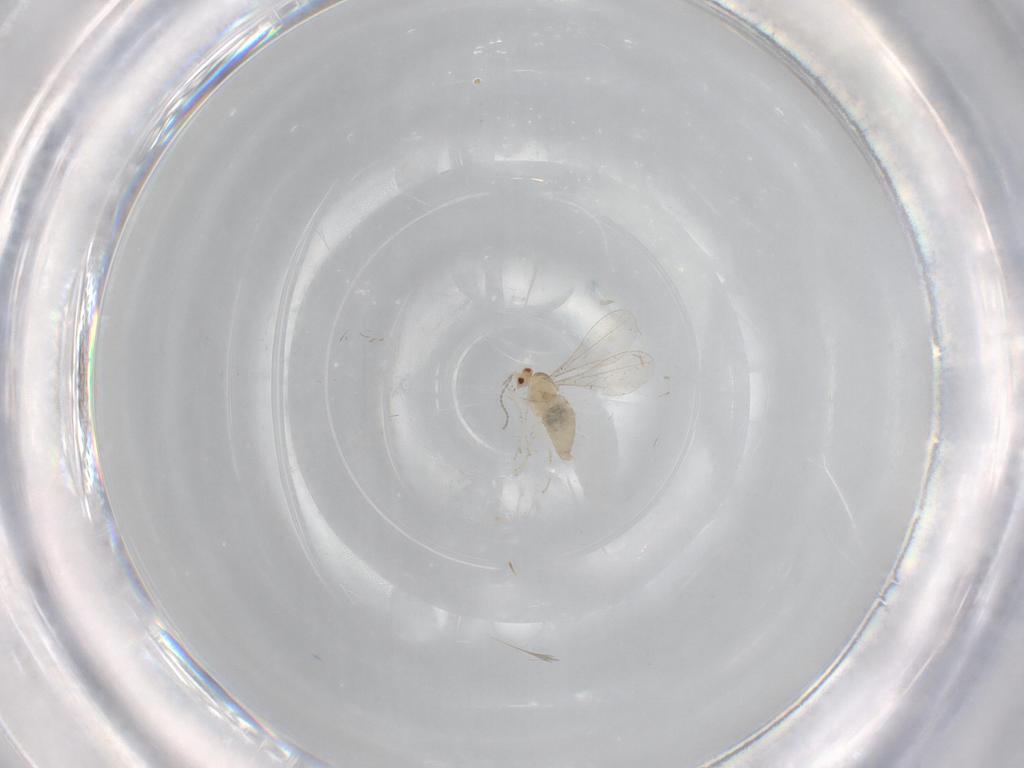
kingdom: Animalia
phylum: Arthropoda
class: Insecta
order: Diptera
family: Cecidomyiidae
